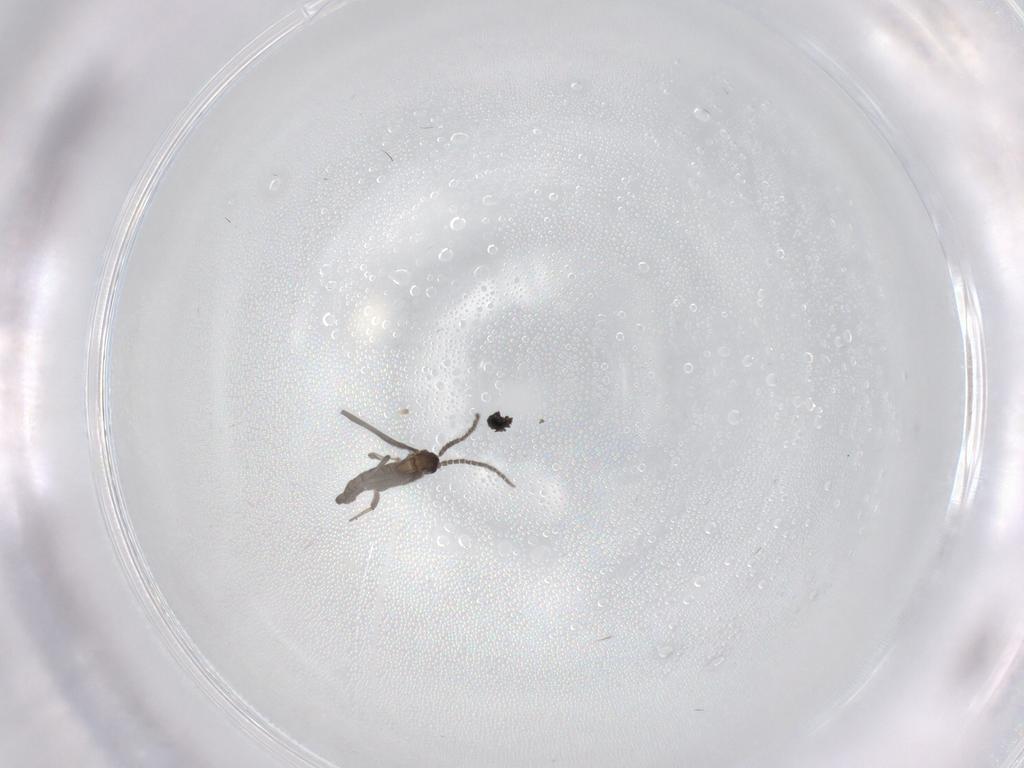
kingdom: Animalia
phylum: Arthropoda
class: Insecta
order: Diptera
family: Sciaridae
